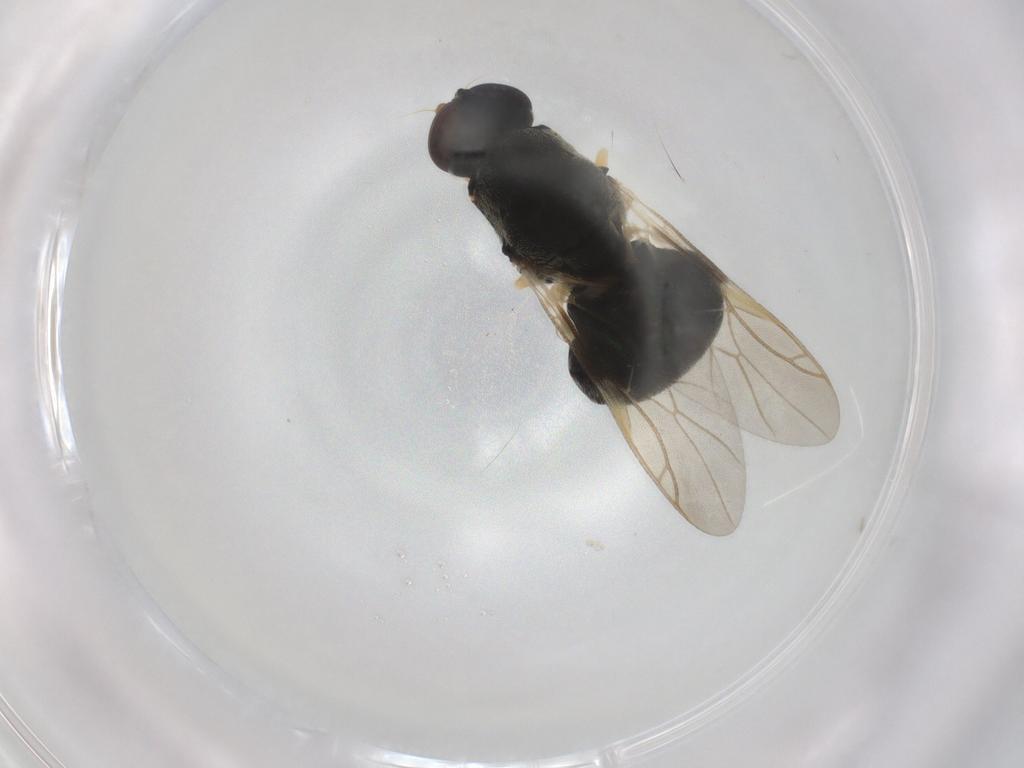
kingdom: Animalia
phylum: Arthropoda
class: Insecta
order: Diptera
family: Stratiomyidae
